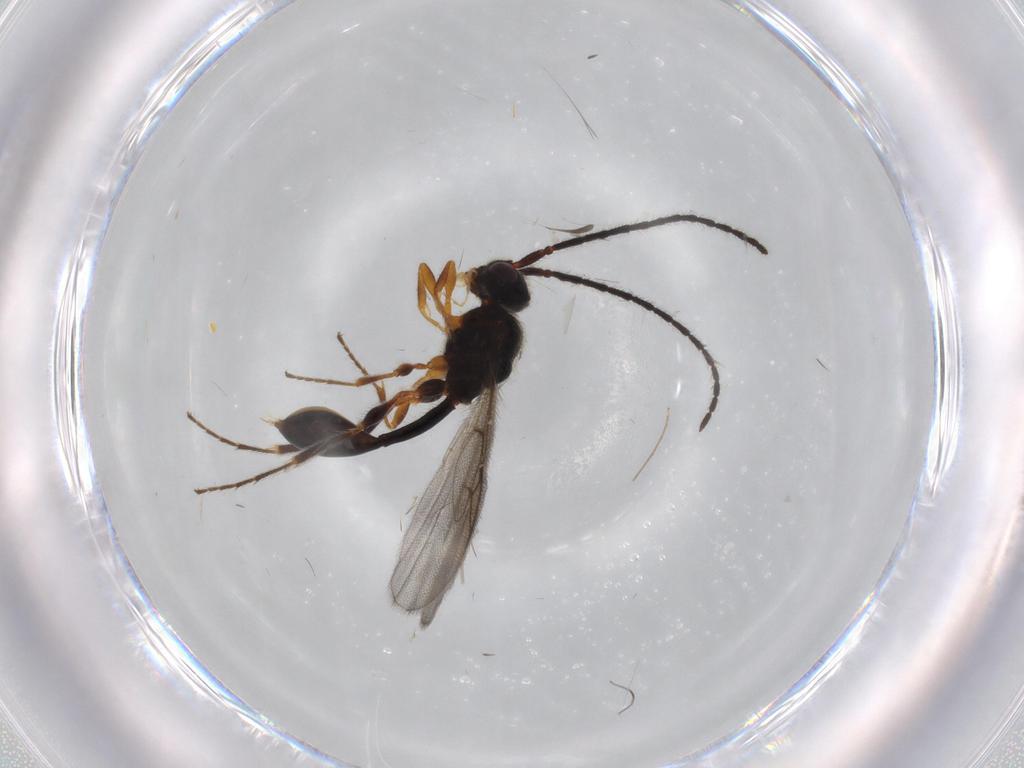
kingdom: Animalia
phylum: Arthropoda
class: Insecta
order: Hymenoptera
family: Diapriidae
